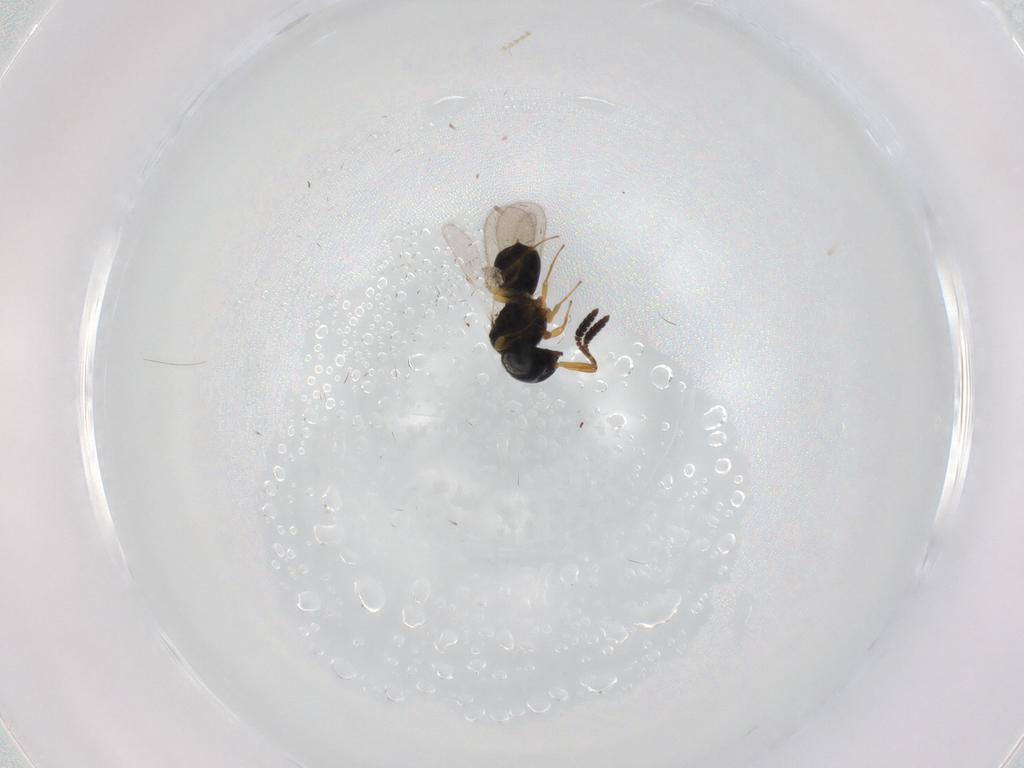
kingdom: Animalia
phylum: Arthropoda
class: Insecta
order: Hymenoptera
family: Scelionidae
